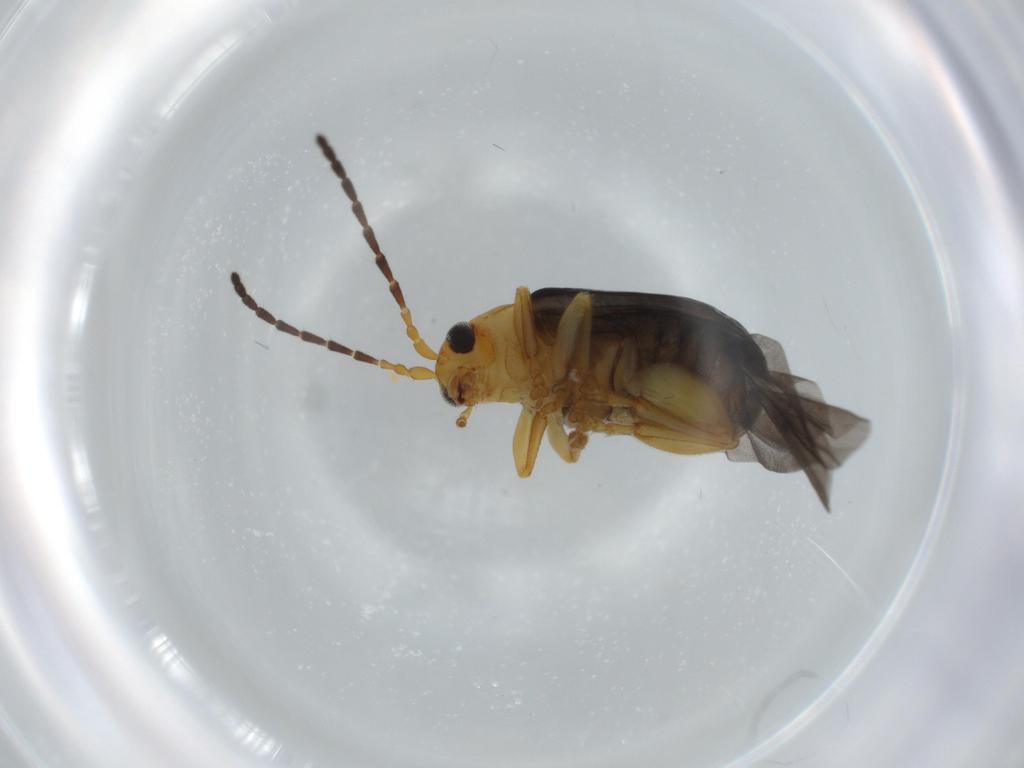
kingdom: Animalia
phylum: Arthropoda
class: Insecta
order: Coleoptera
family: Chrysomelidae
